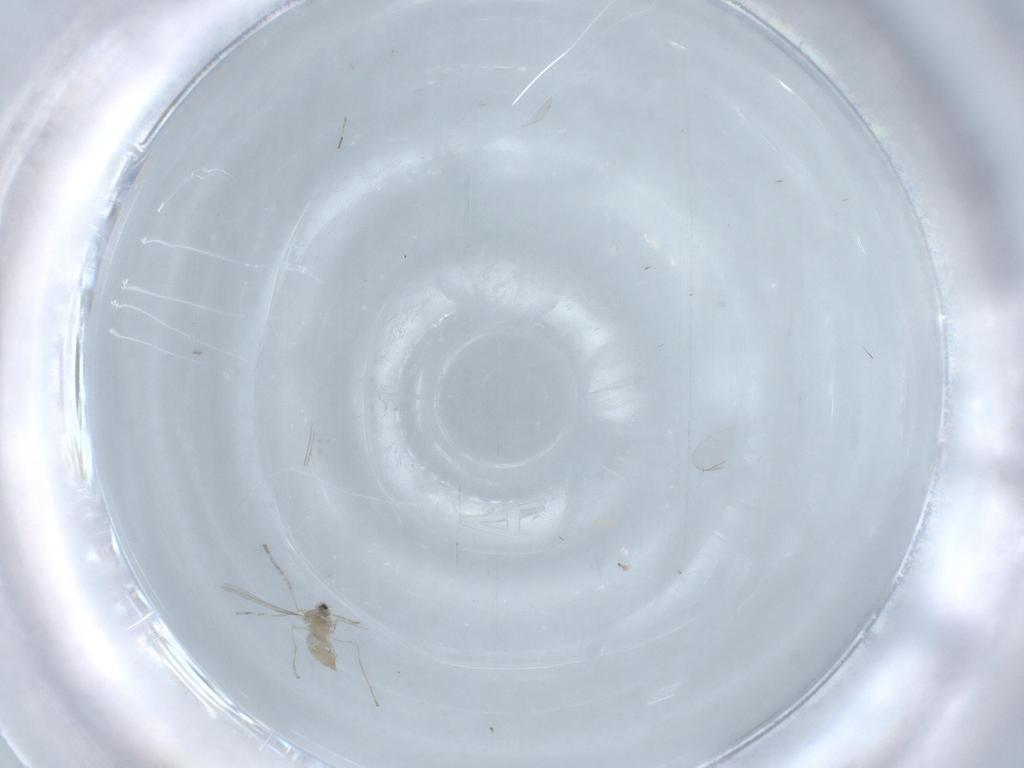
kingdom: Animalia
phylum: Arthropoda
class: Insecta
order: Diptera
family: Cecidomyiidae
